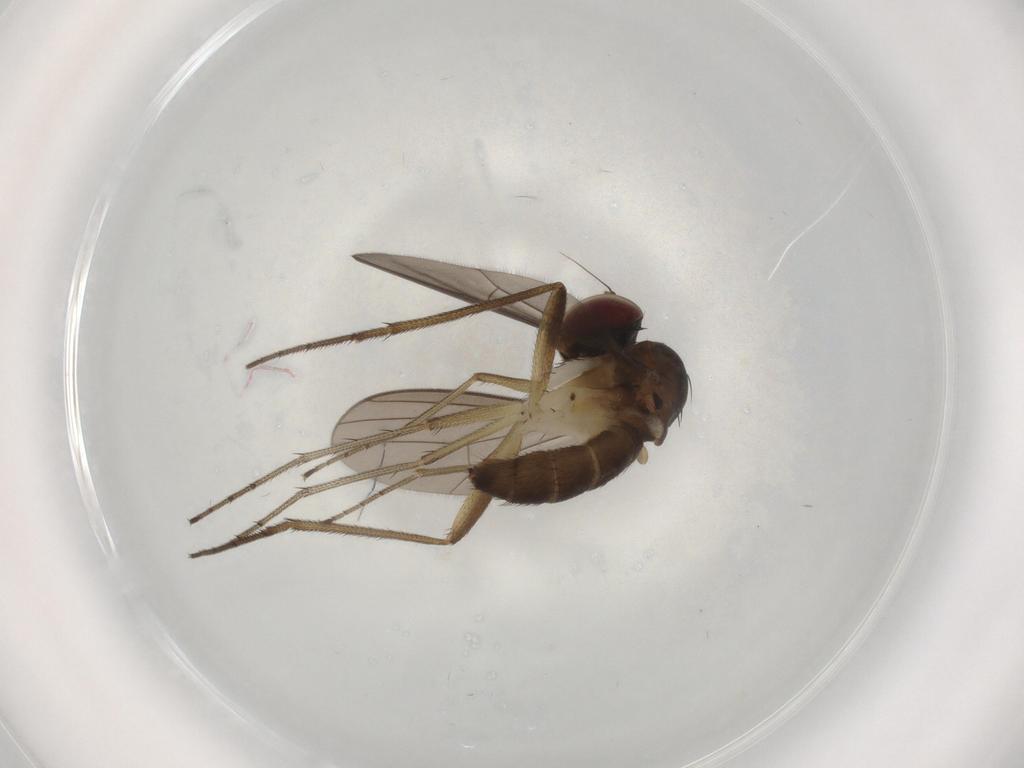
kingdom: Animalia
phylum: Arthropoda
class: Insecta
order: Diptera
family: Dolichopodidae
